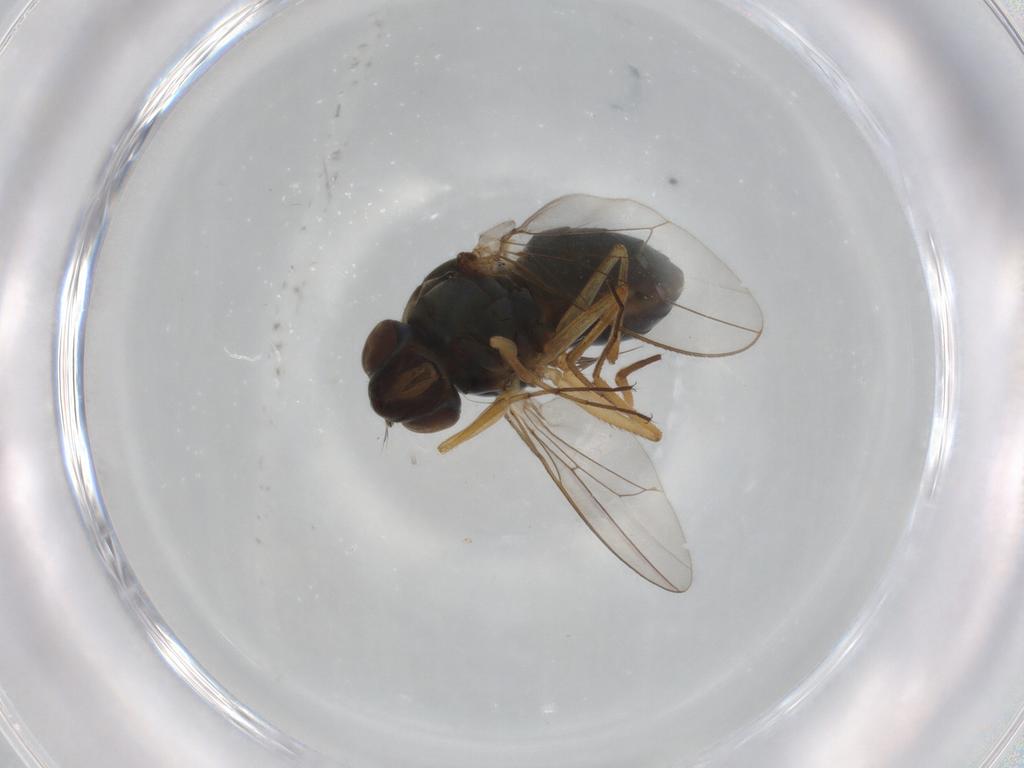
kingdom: Animalia
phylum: Arthropoda
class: Insecta
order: Diptera
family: Ephydridae
